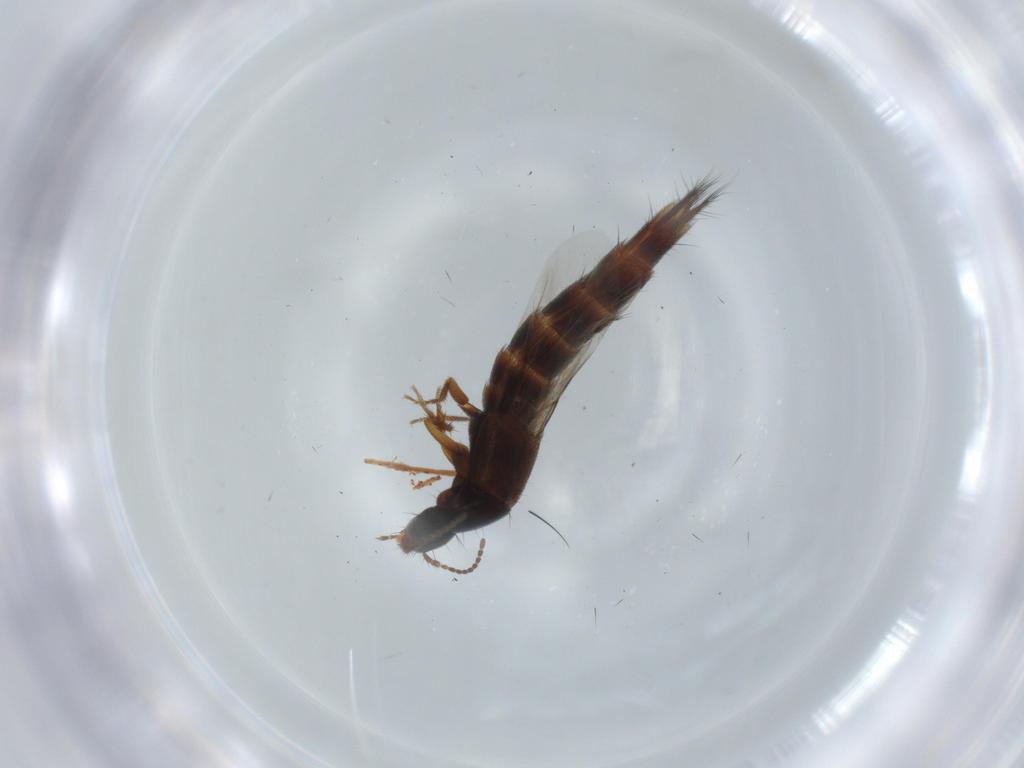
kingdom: Animalia
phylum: Arthropoda
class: Insecta
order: Coleoptera
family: Staphylinidae
